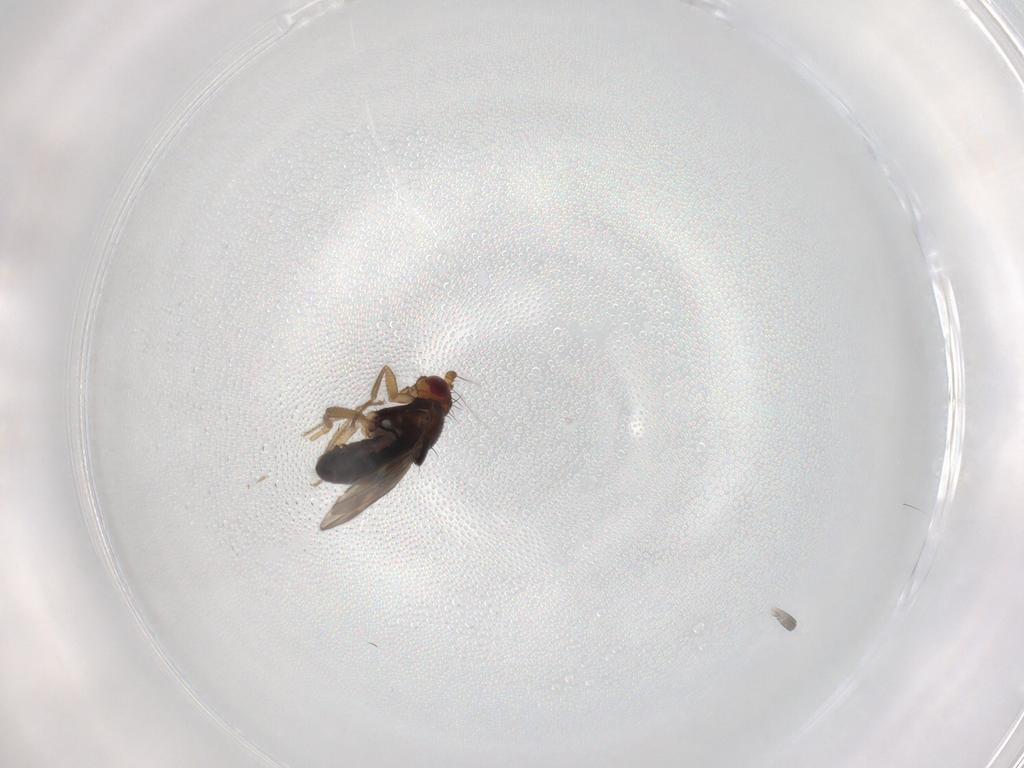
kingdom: Animalia
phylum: Arthropoda
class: Insecta
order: Diptera
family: Sphaeroceridae
